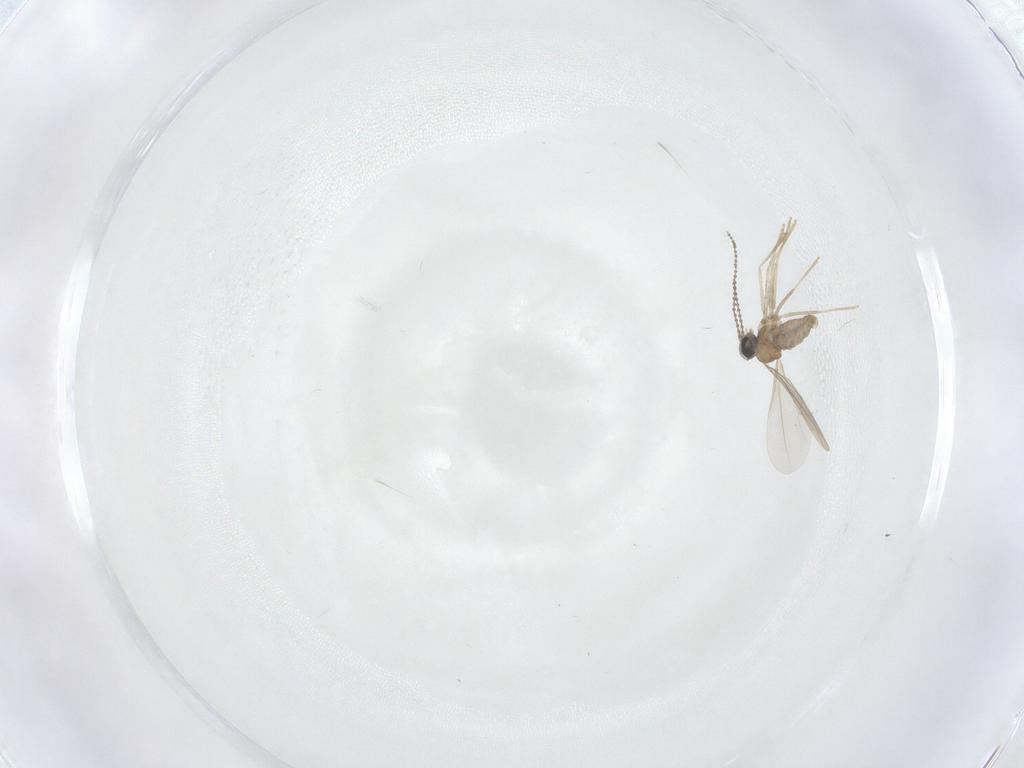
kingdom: Animalia
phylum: Arthropoda
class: Insecta
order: Diptera
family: Cecidomyiidae
